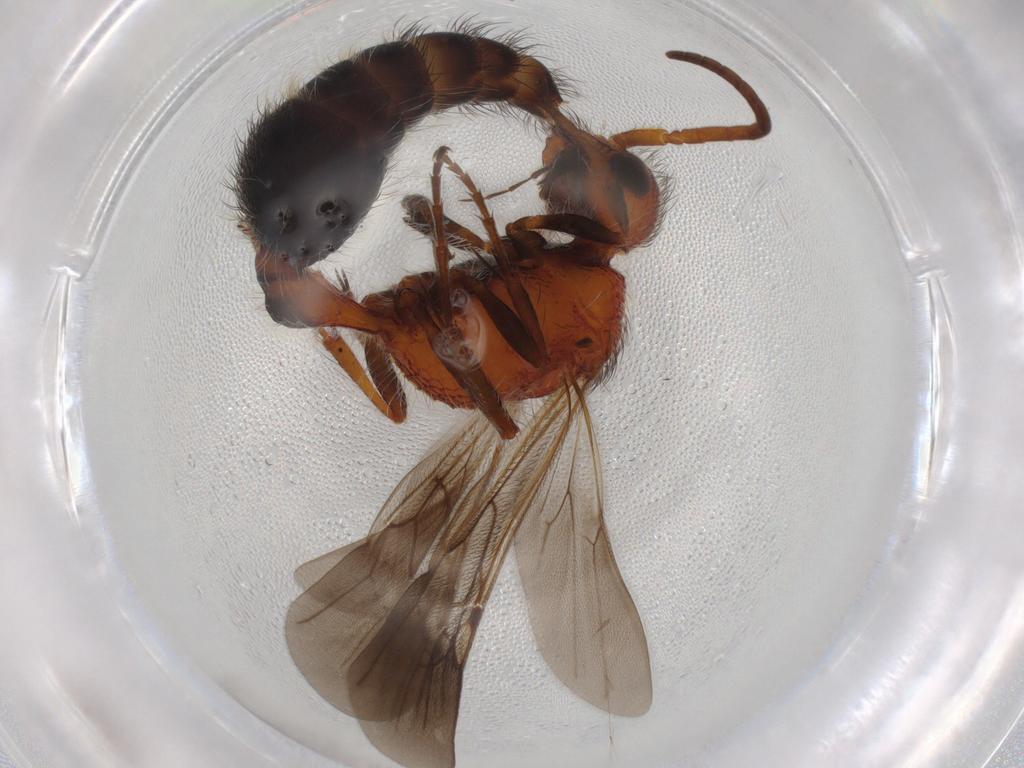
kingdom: Animalia
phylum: Arthropoda
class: Insecta
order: Hymenoptera
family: Mutillidae
